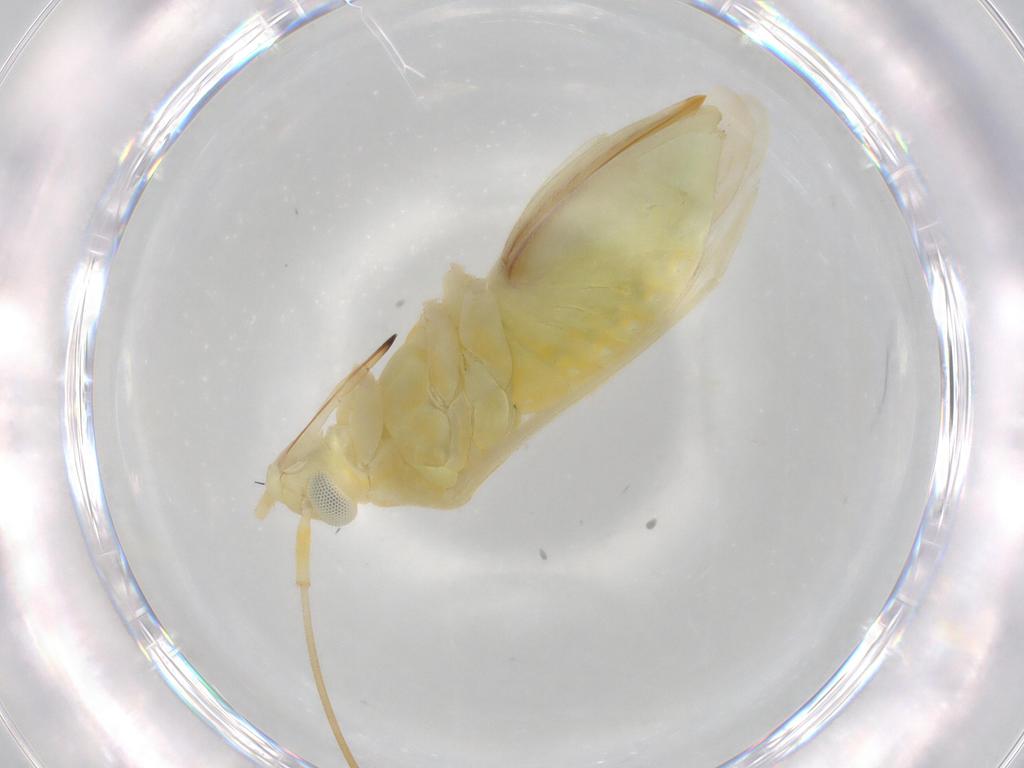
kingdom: Animalia
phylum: Arthropoda
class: Insecta
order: Hemiptera
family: Miridae
